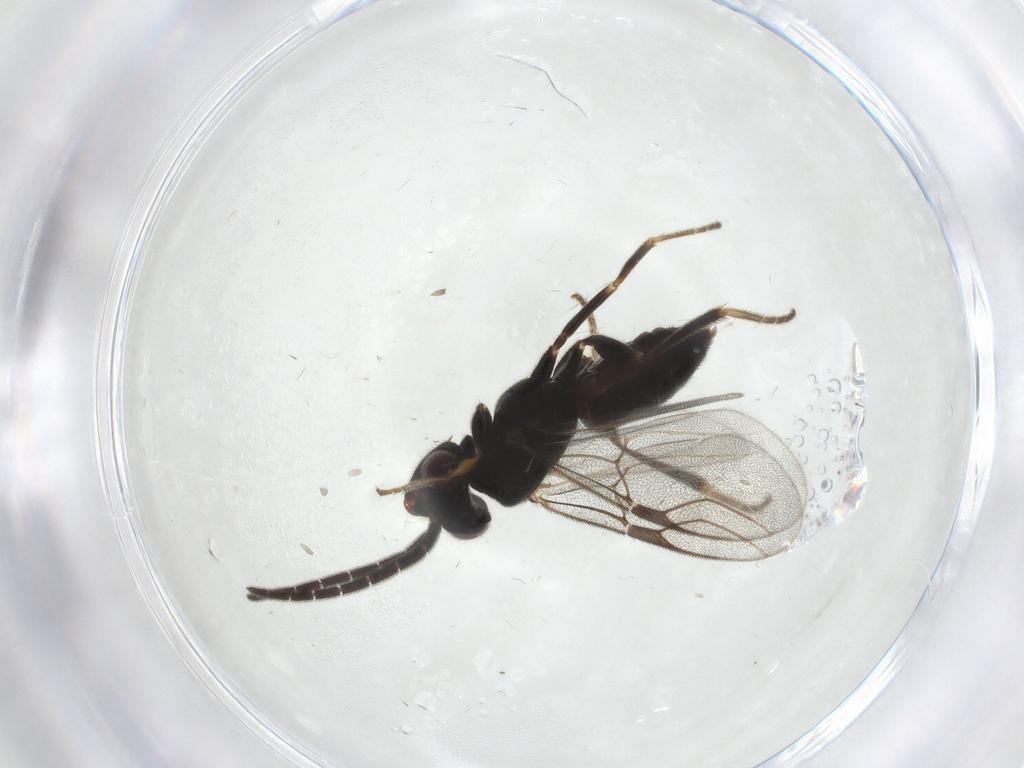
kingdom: Animalia
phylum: Arthropoda
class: Insecta
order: Hymenoptera
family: Dryinidae
